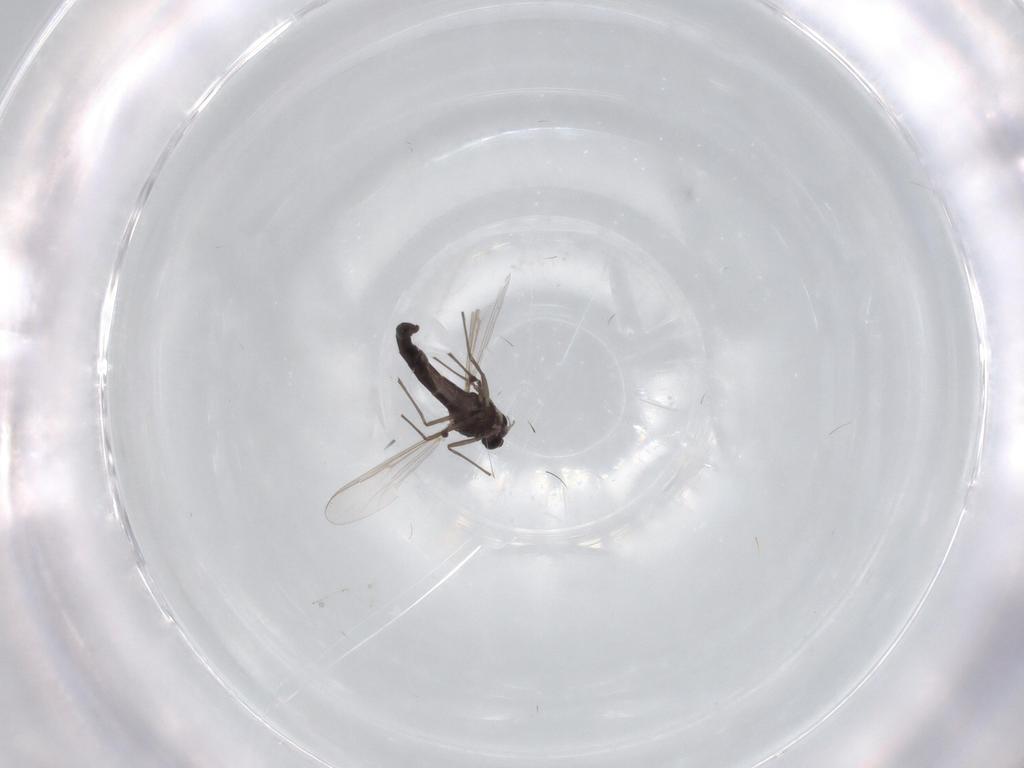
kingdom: Animalia
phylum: Arthropoda
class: Insecta
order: Diptera
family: Chironomidae
